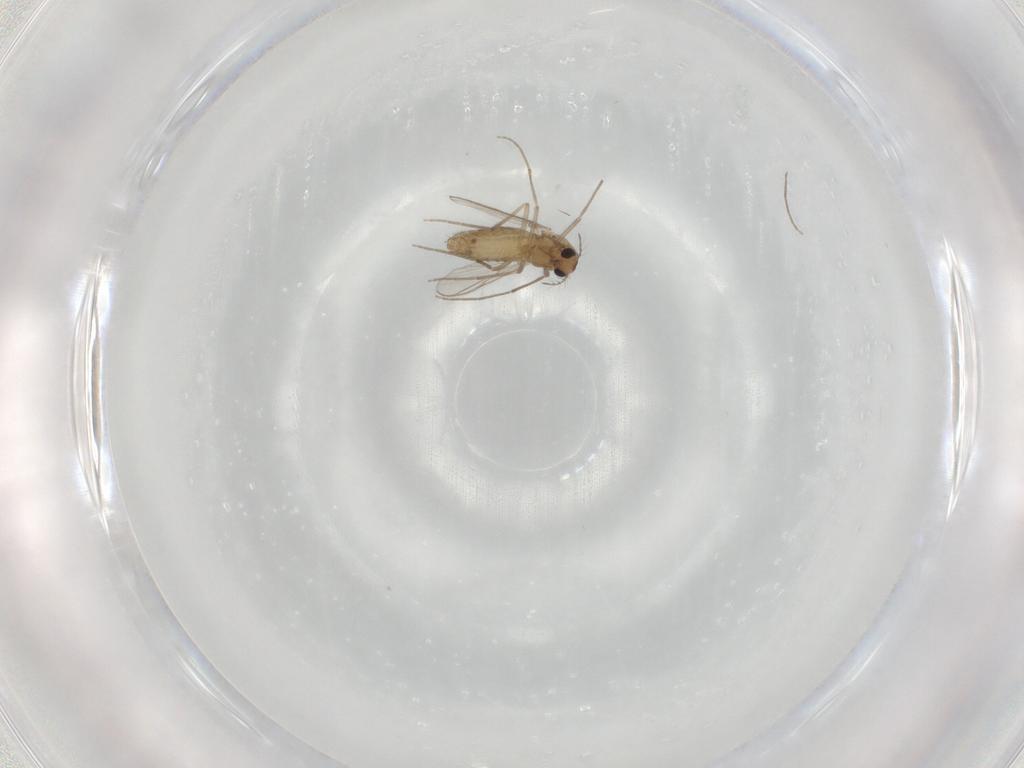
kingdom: Animalia
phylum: Arthropoda
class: Insecta
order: Diptera
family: Chironomidae
